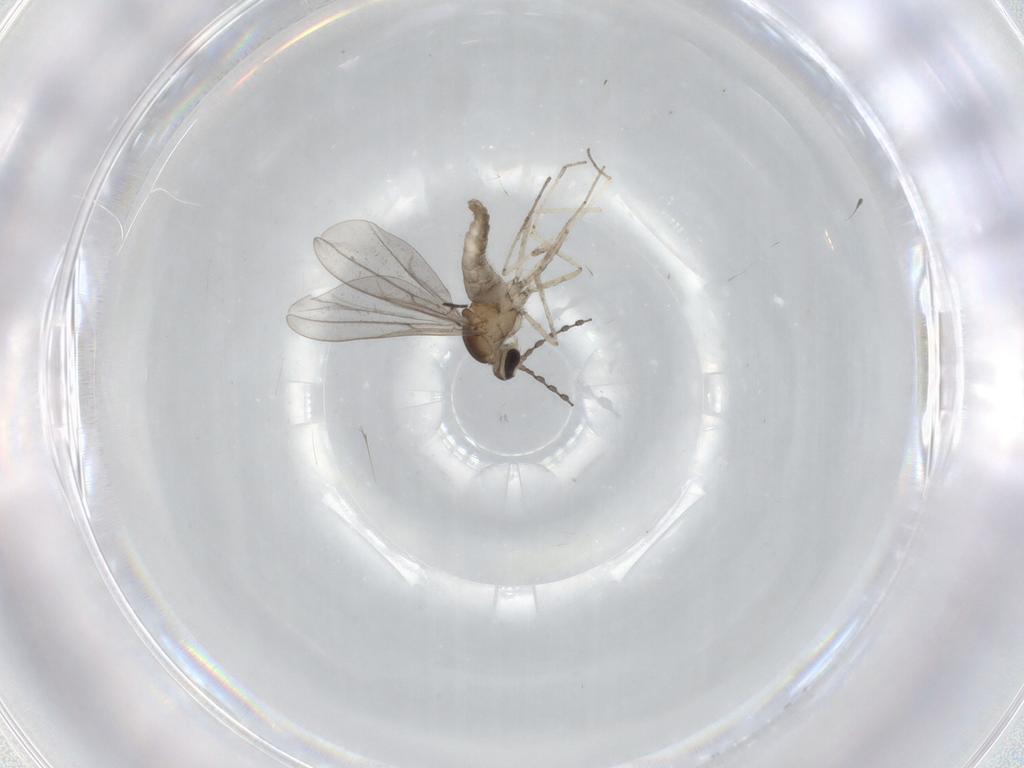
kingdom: Animalia
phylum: Arthropoda
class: Insecta
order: Diptera
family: Cecidomyiidae
